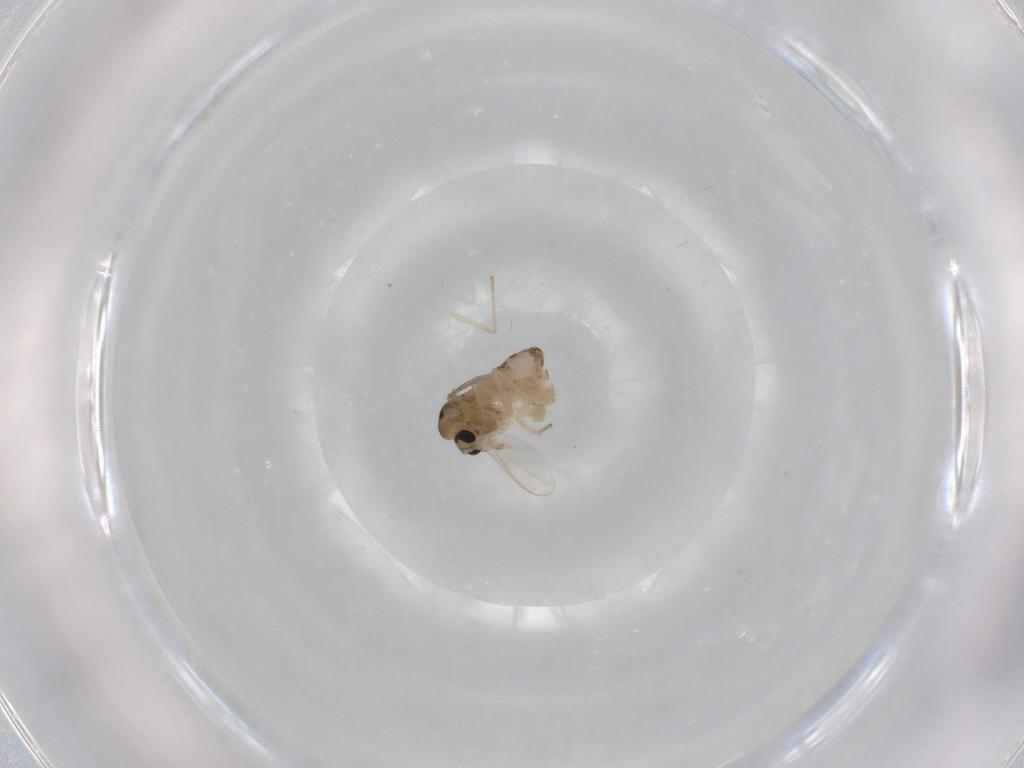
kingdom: Animalia
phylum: Arthropoda
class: Insecta
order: Diptera
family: Chironomidae
